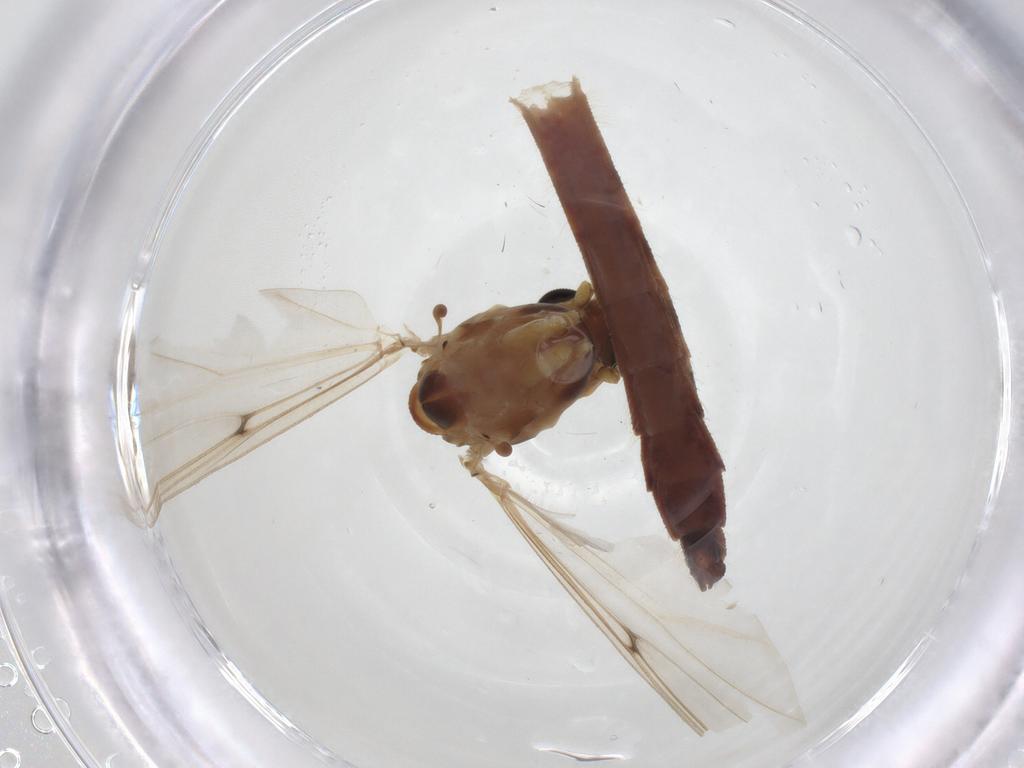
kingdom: Animalia
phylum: Arthropoda
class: Insecta
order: Diptera
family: Chironomidae
